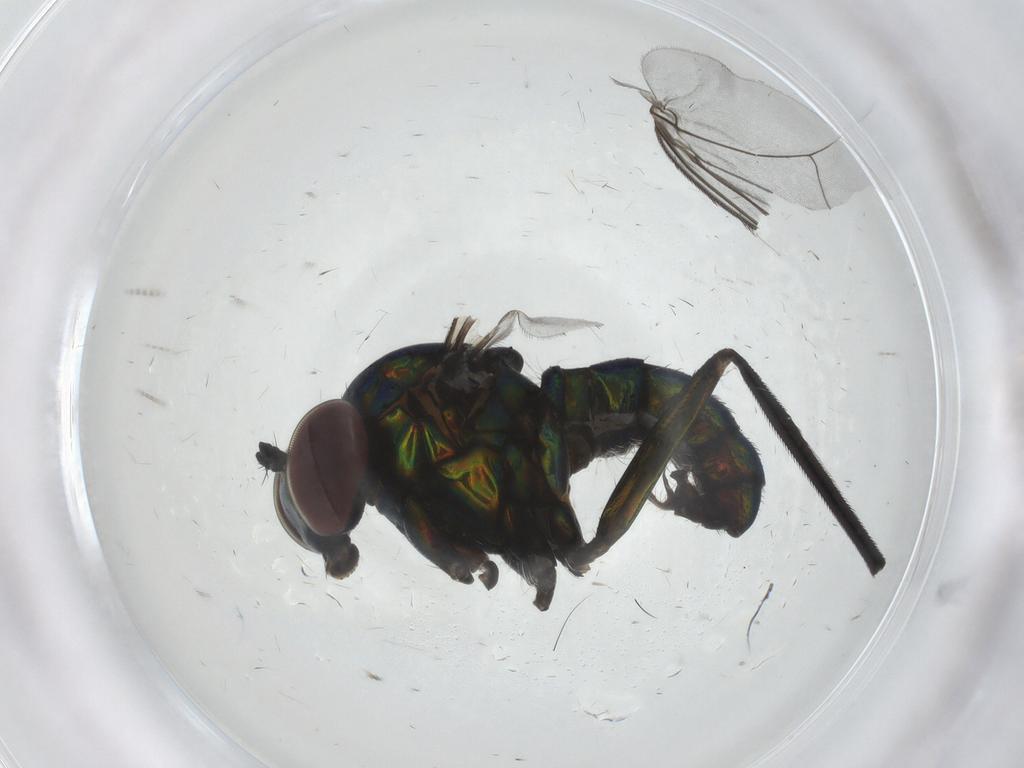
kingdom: Animalia
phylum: Arthropoda
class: Insecta
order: Diptera
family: Dolichopodidae
